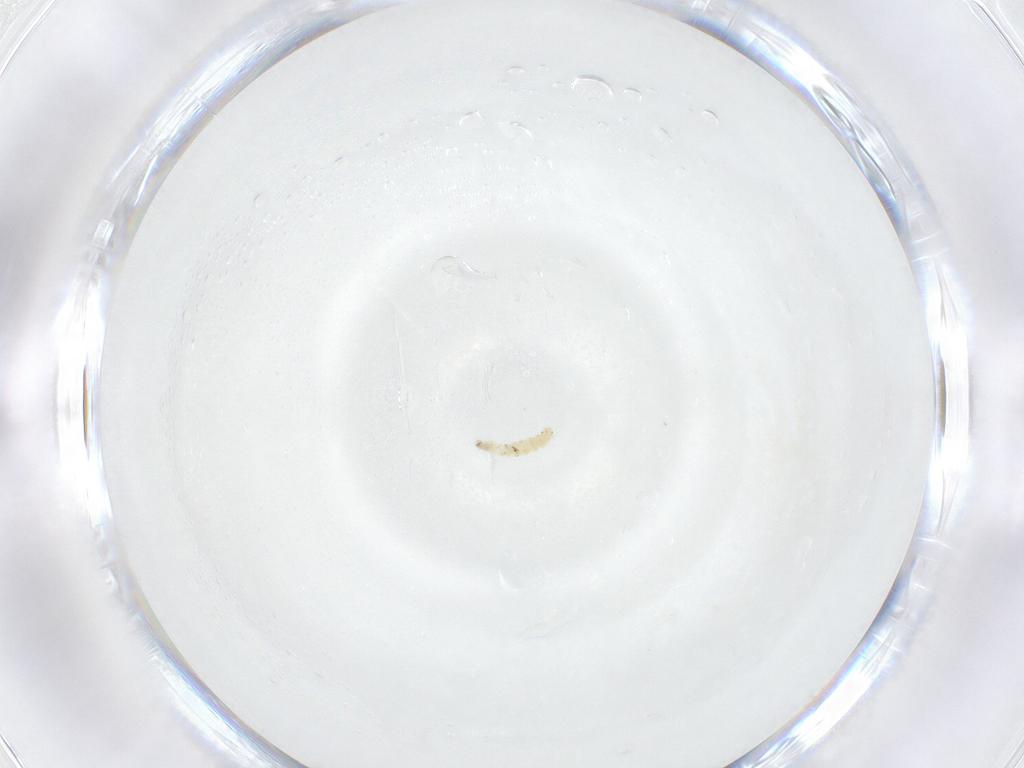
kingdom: Animalia
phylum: Arthropoda
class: Insecta
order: Diptera
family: Sarcophagidae
